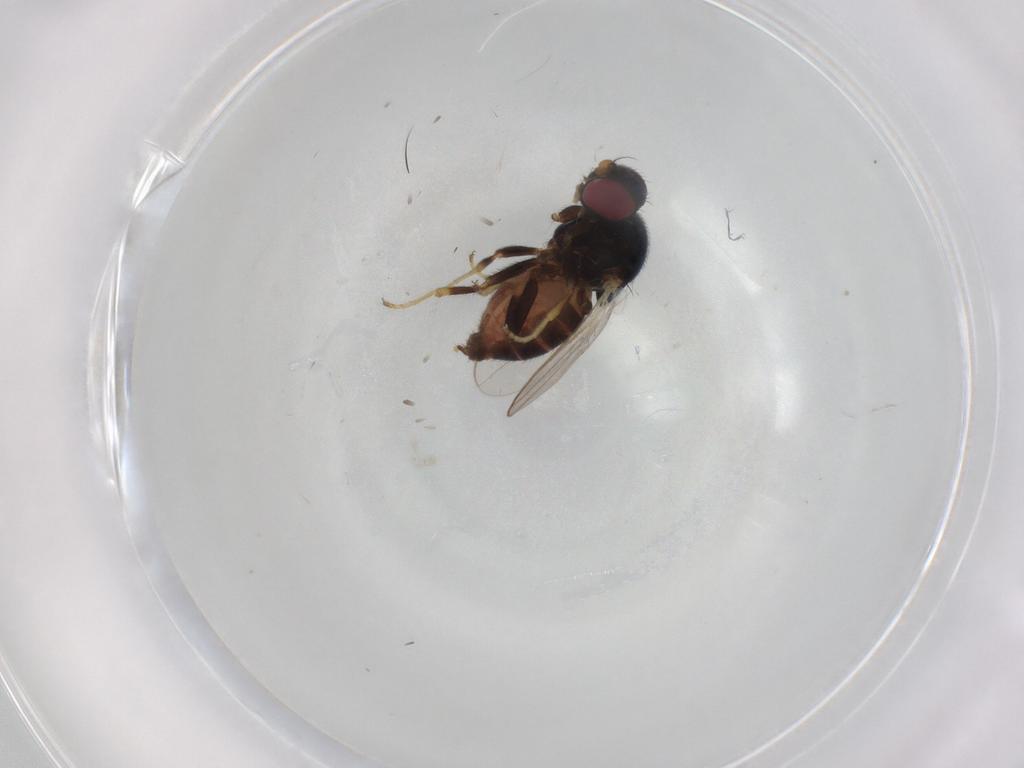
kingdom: Animalia
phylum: Arthropoda
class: Insecta
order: Diptera
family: Chloropidae
